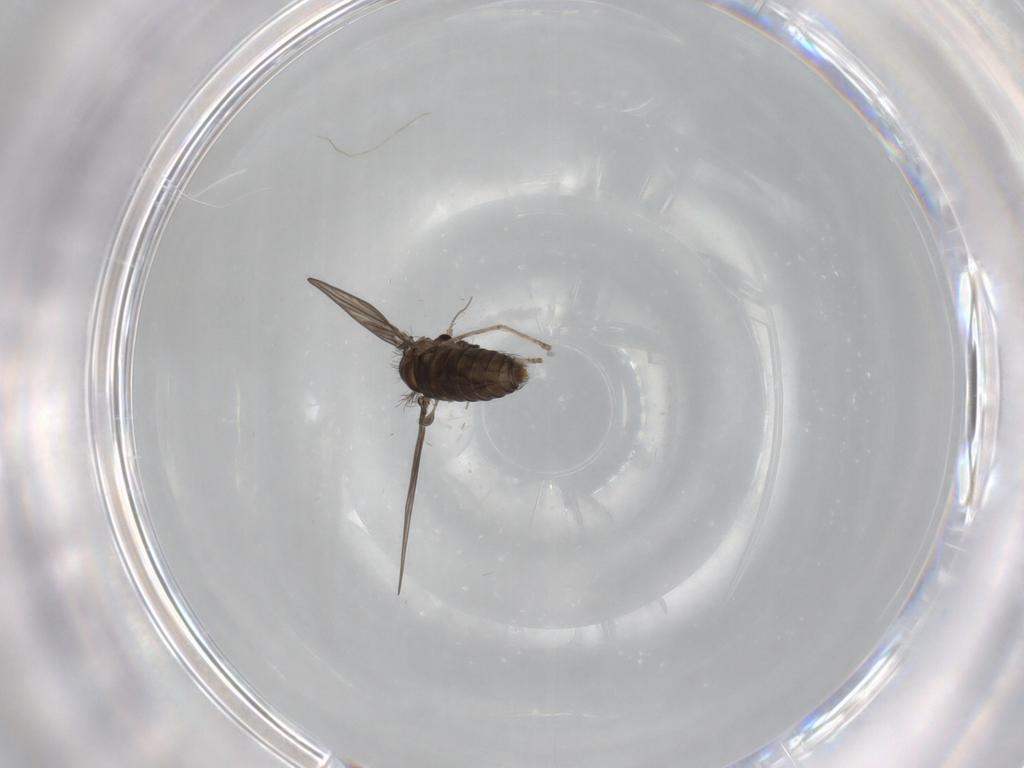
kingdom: Animalia
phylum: Arthropoda
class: Insecta
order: Diptera
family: Psychodidae
